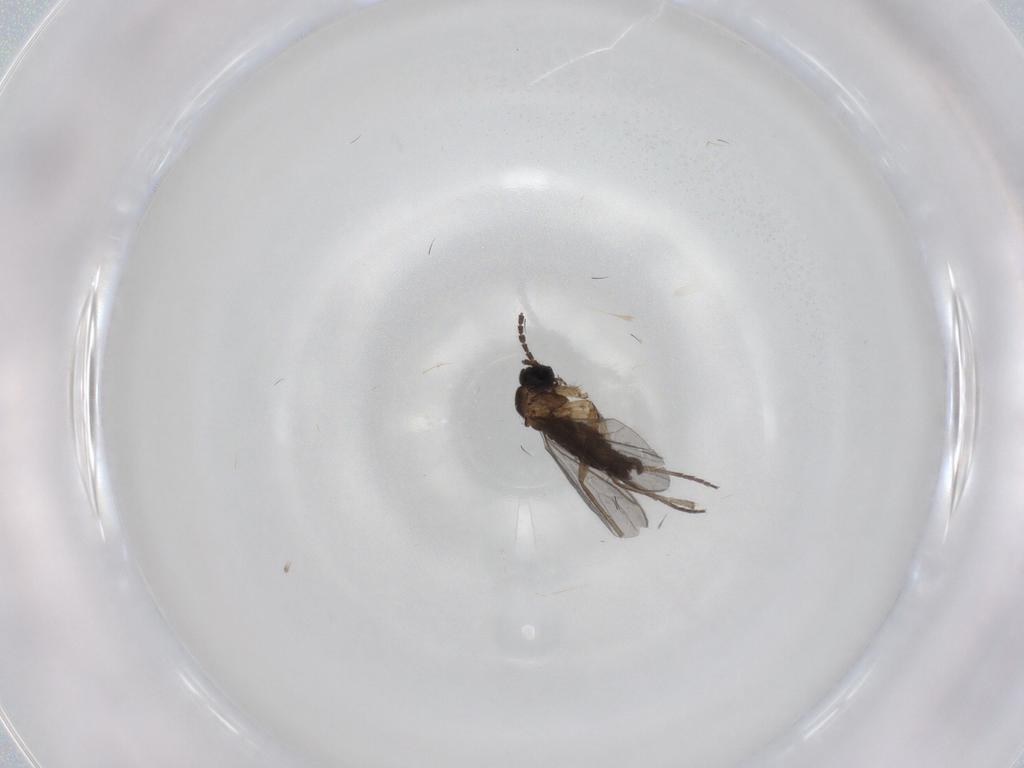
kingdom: Animalia
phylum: Arthropoda
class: Insecta
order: Diptera
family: Sciaridae
